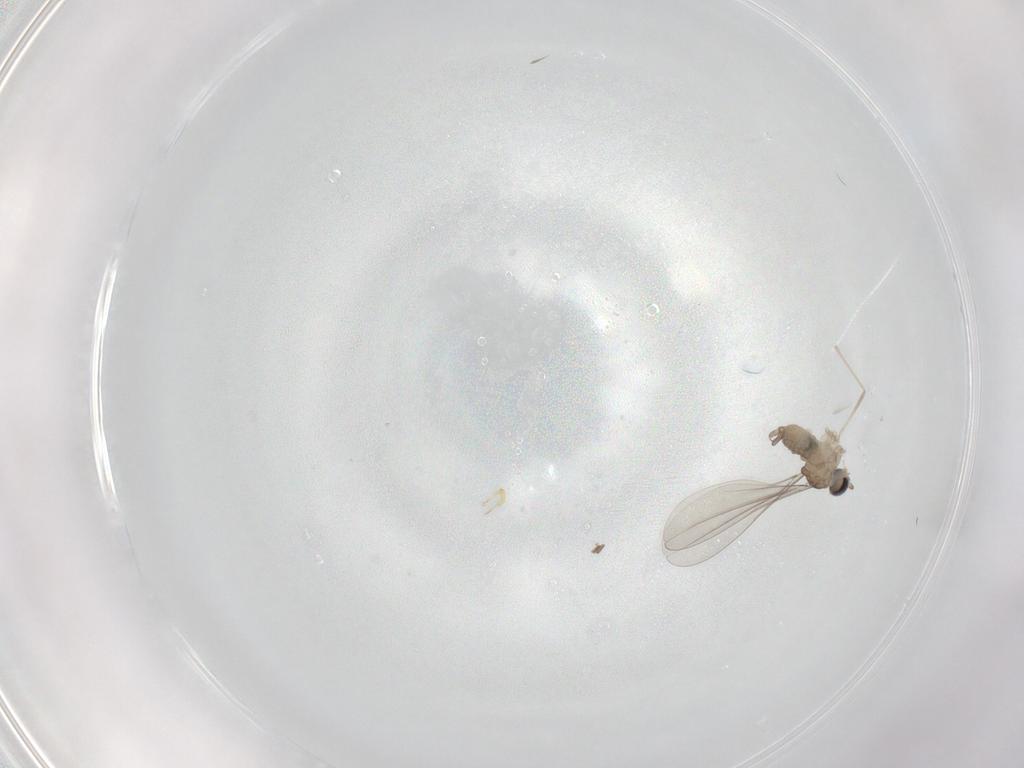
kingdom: Animalia
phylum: Arthropoda
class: Insecta
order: Diptera
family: Cecidomyiidae
